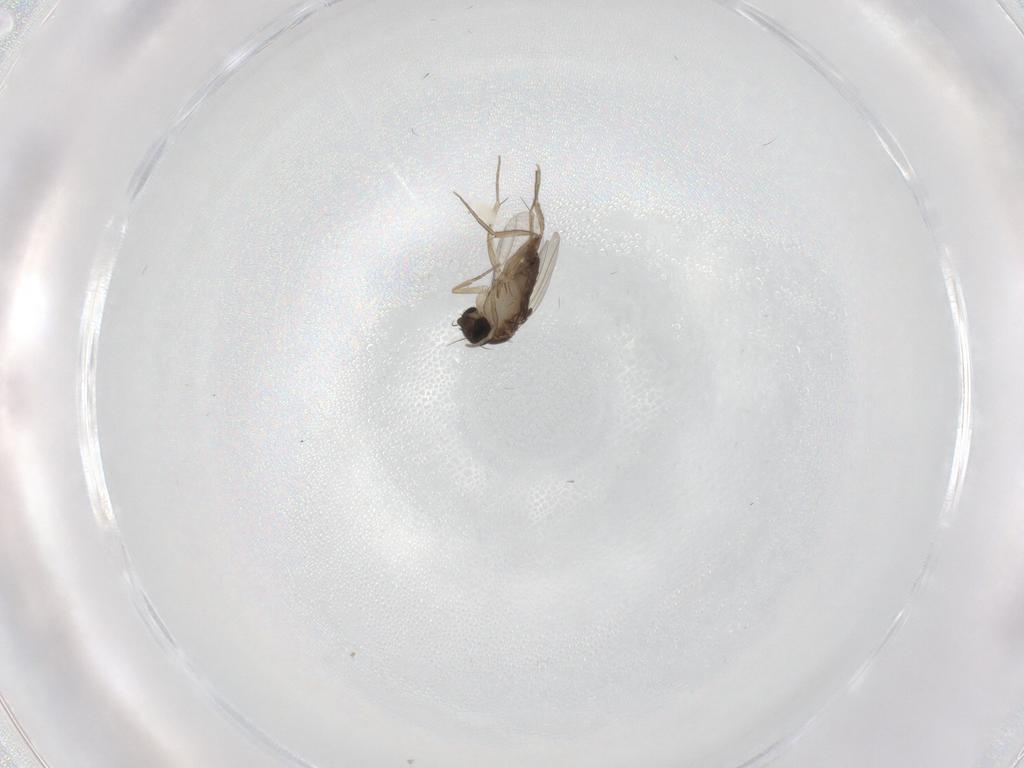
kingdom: Animalia
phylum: Arthropoda
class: Insecta
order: Diptera
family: Phoridae
